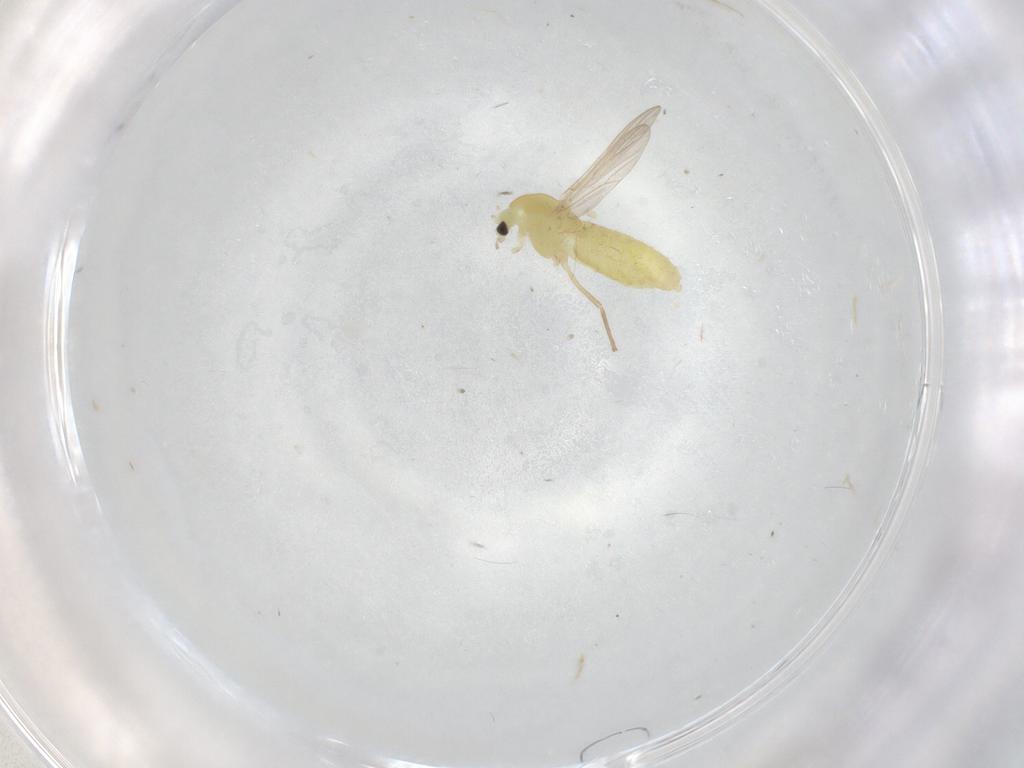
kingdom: Animalia
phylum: Arthropoda
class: Insecta
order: Diptera
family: Chironomidae
